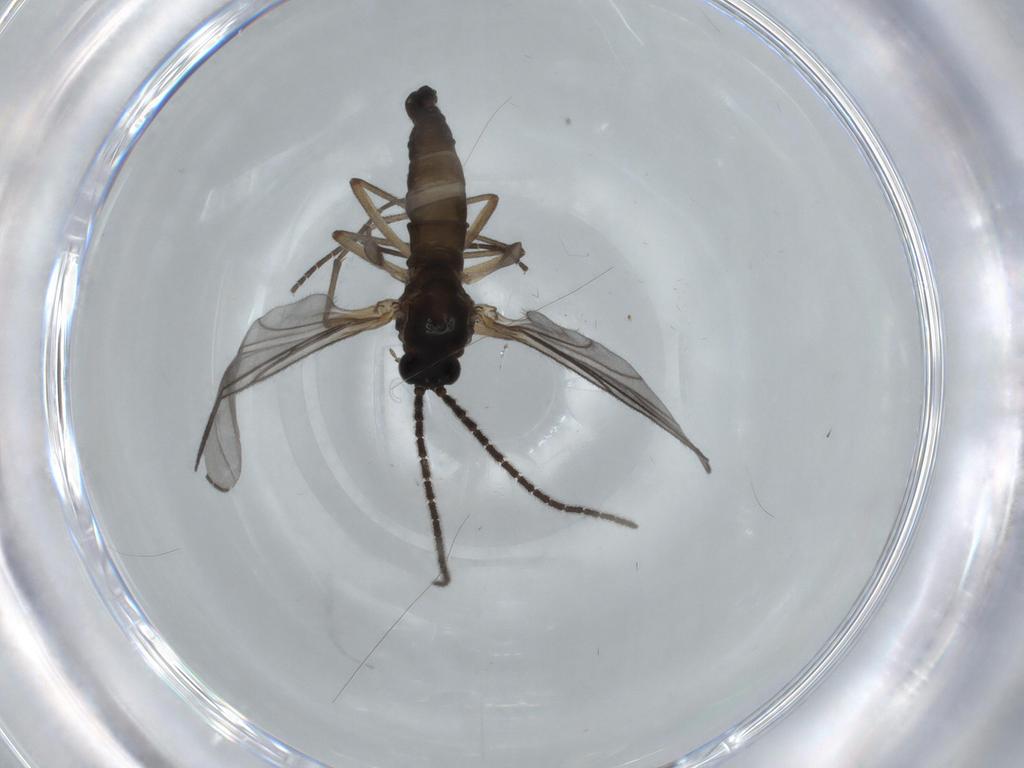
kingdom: Animalia
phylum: Arthropoda
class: Insecta
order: Diptera
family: Sciaridae
